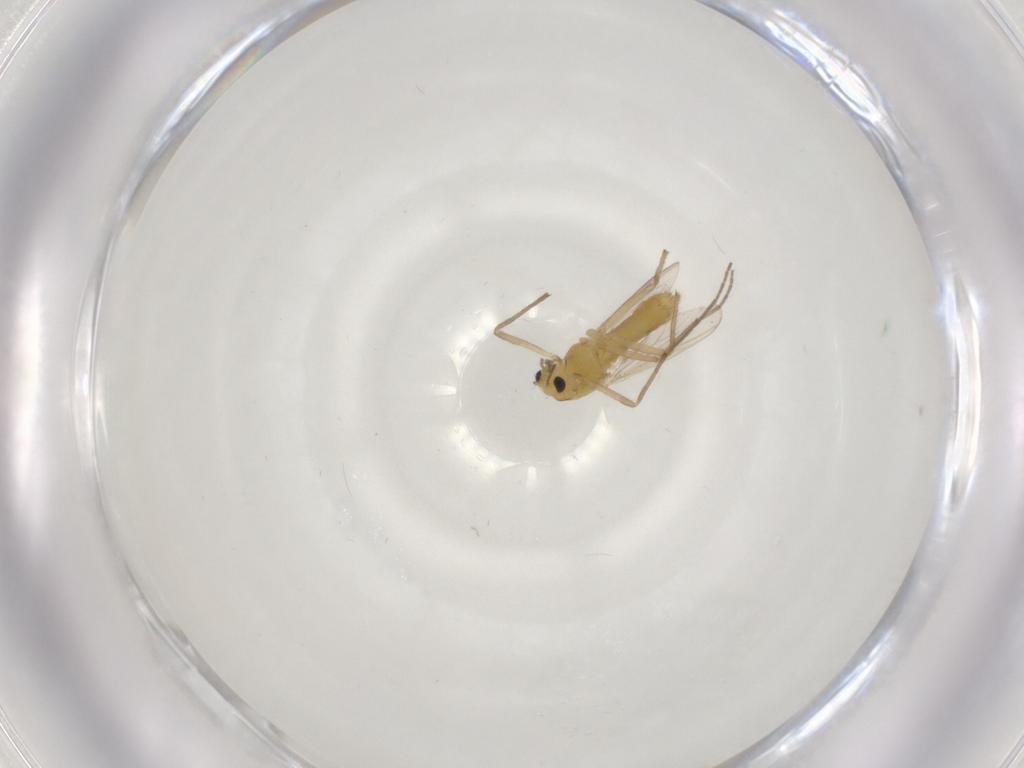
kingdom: Animalia
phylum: Arthropoda
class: Insecta
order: Diptera
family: Chironomidae
